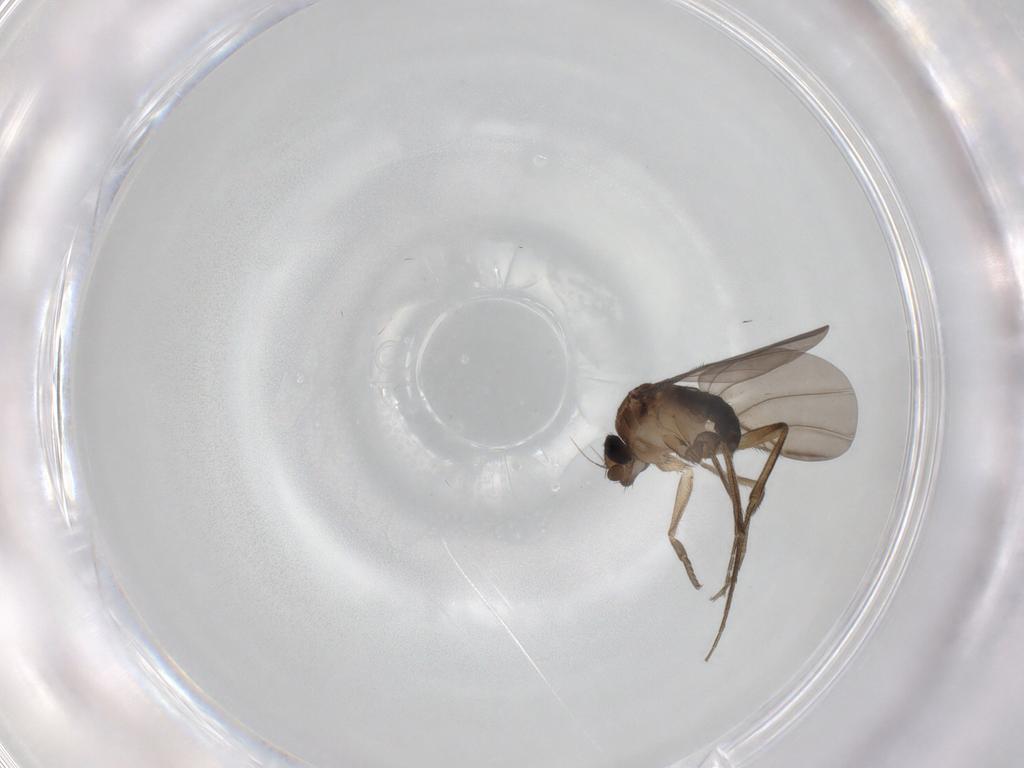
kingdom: Animalia
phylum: Arthropoda
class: Insecta
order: Diptera
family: Phoridae
